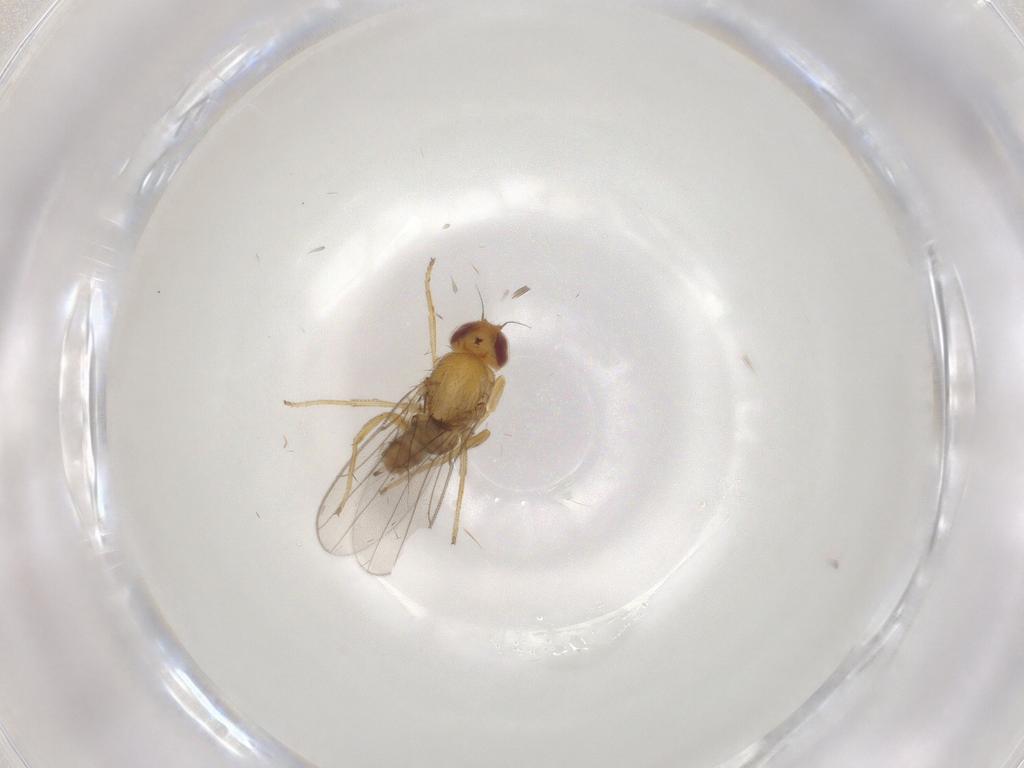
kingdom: Animalia
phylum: Arthropoda
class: Insecta
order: Diptera
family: Chloropidae
